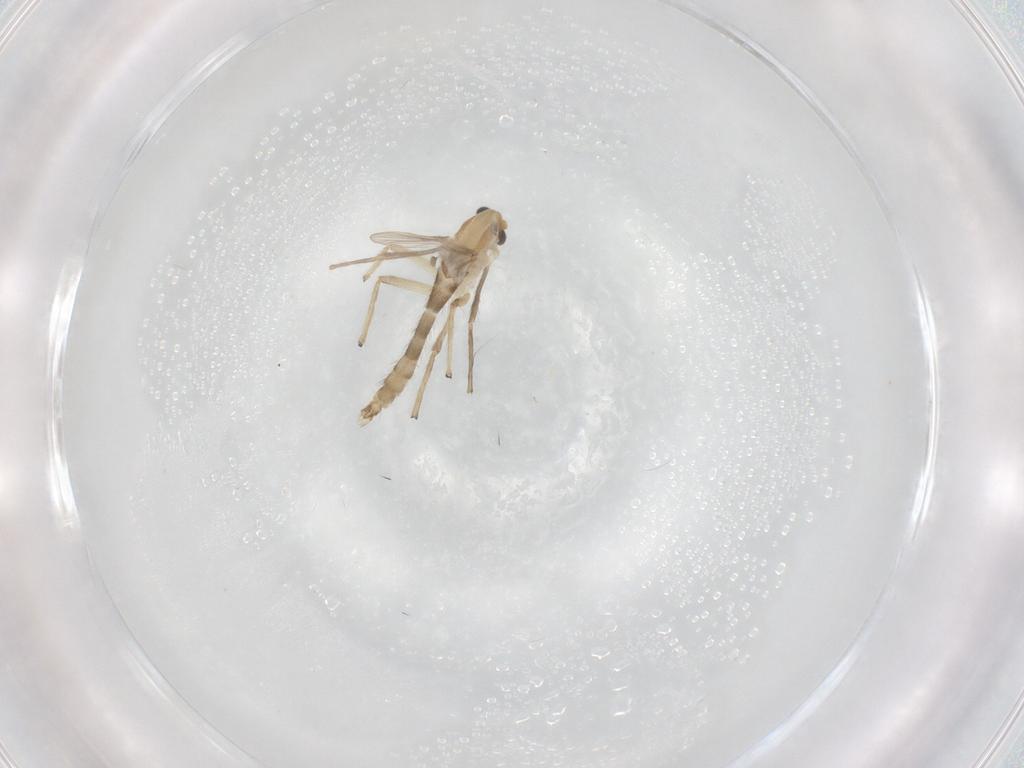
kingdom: Animalia
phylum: Arthropoda
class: Insecta
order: Diptera
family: Chironomidae
